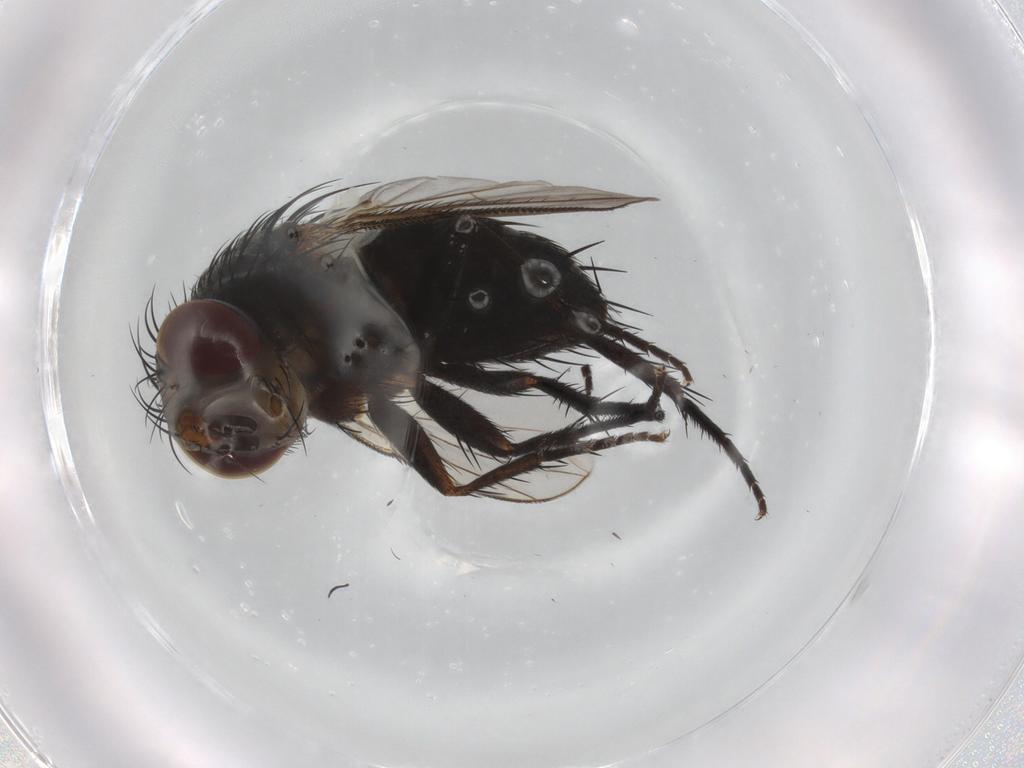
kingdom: Animalia
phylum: Arthropoda
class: Insecta
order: Diptera
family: Tachinidae
